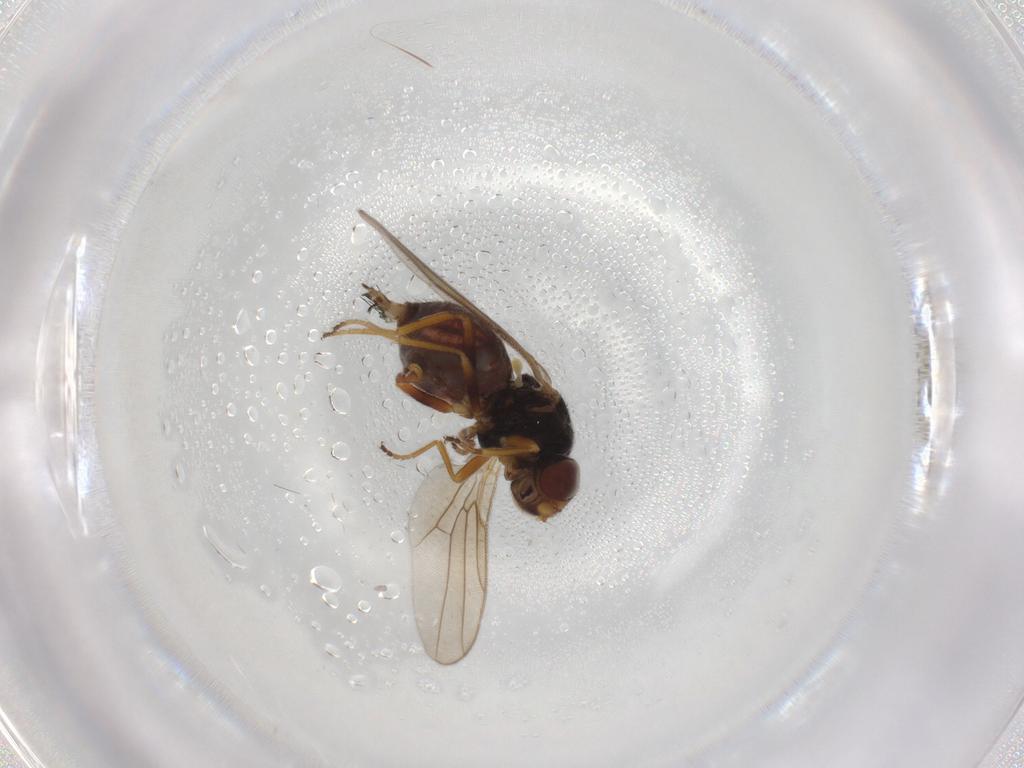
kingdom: Animalia
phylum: Arthropoda
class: Insecta
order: Diptera
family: Chloropidae
